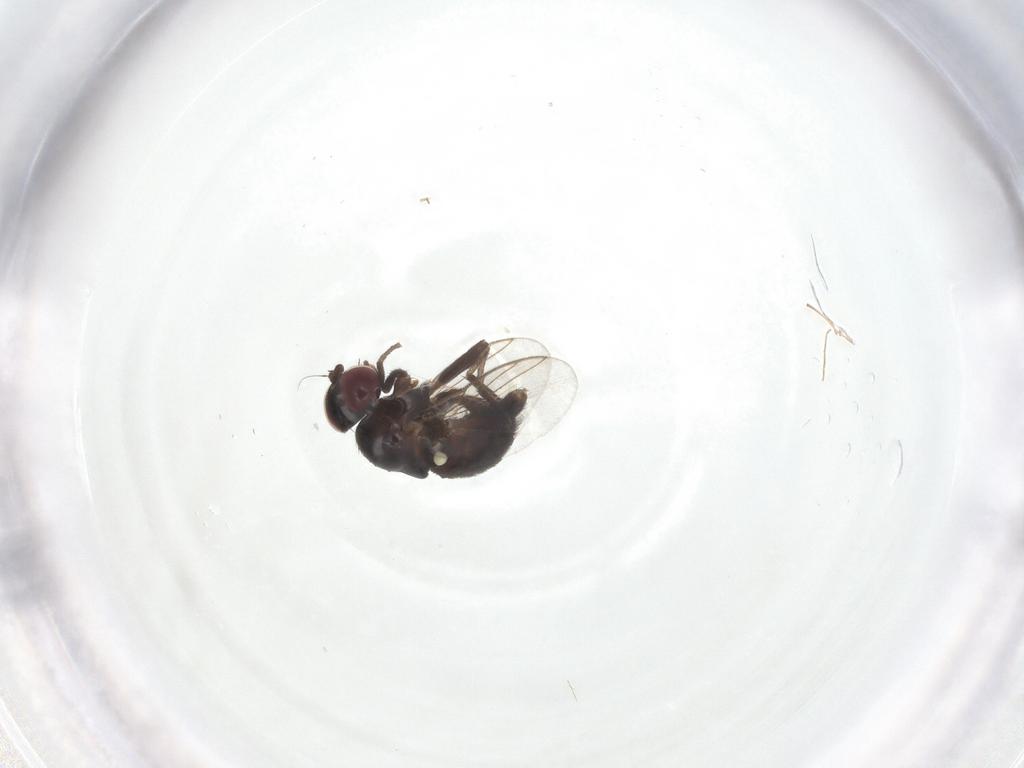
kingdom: Animalia
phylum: Arthropoda
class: Insecta
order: Diptera
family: Agromyzidae
